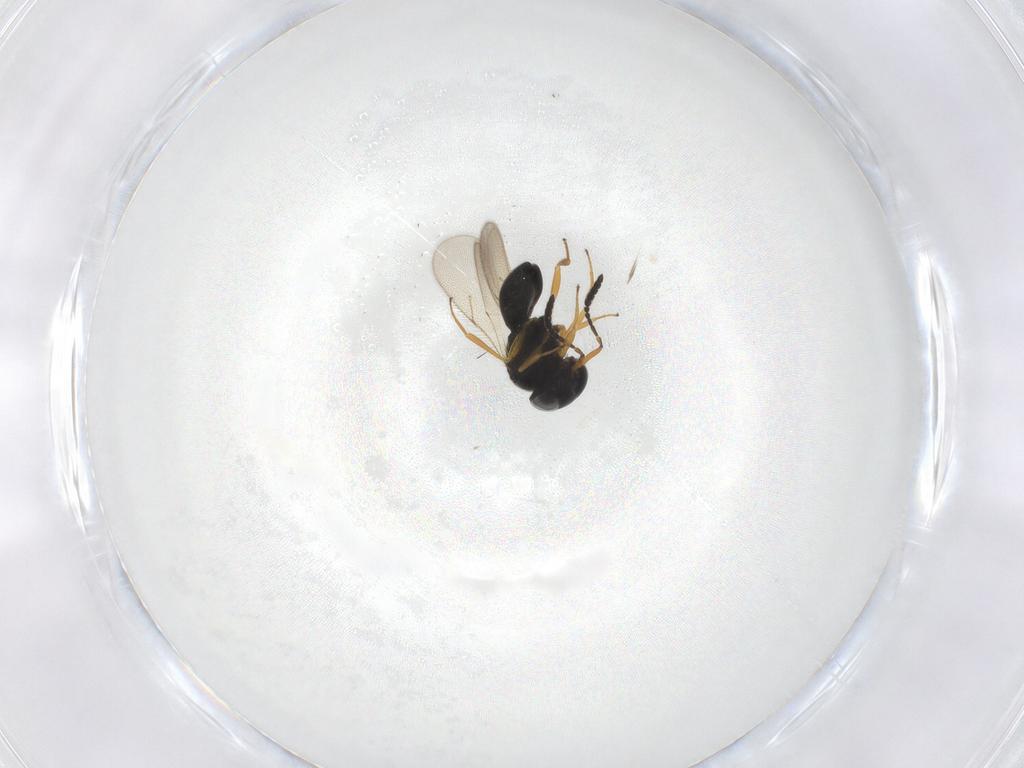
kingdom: Animalia
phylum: Arthropoda
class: Insecta
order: Hymenoptera
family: Scelionidae
